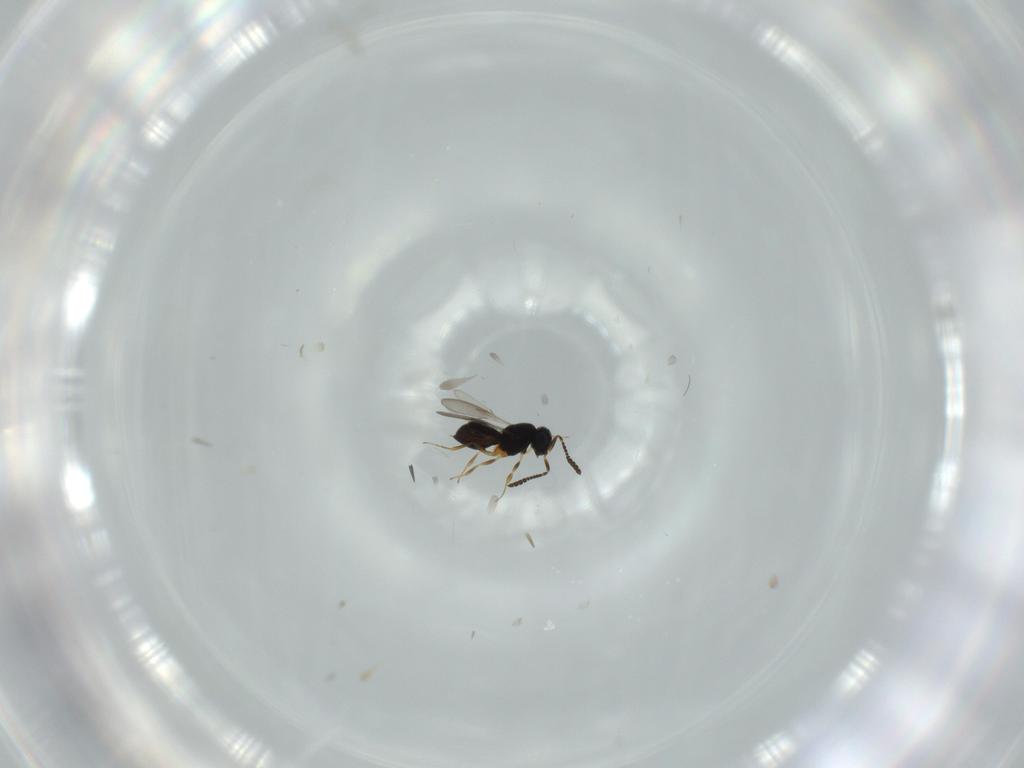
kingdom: Animalia
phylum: Arthropoda
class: Insecta
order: Hymenoptera
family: Scelionidae
